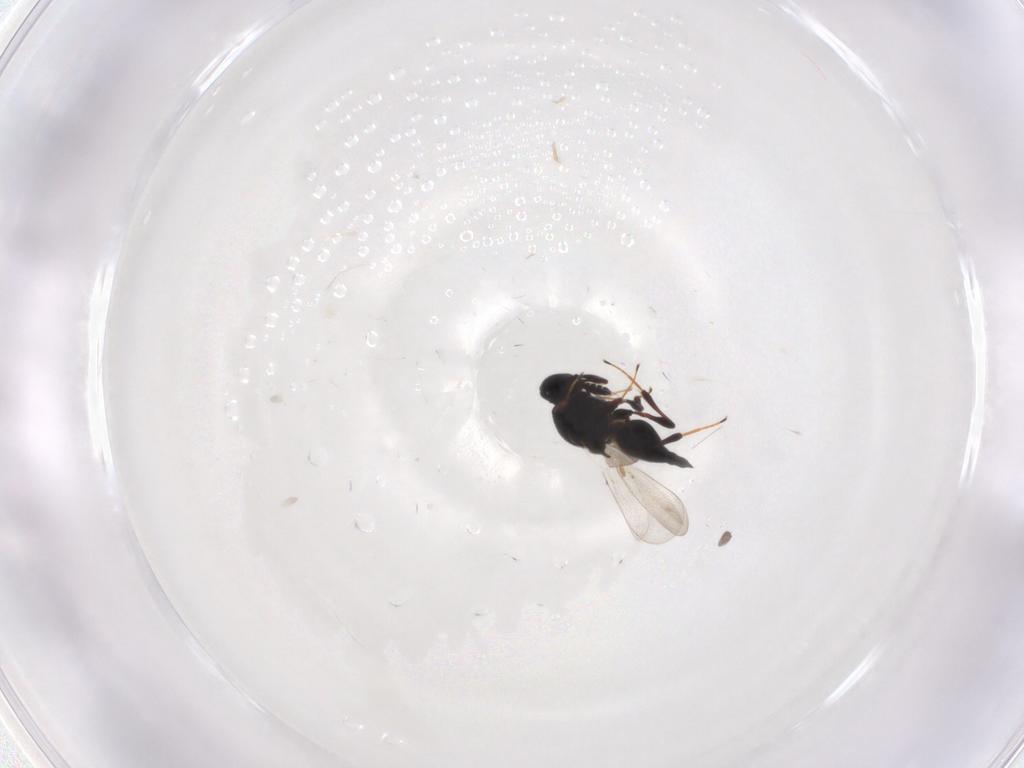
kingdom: Animalia
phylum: Arthropoda
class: Insecta
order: Hymenoptera
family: Platygastridae
